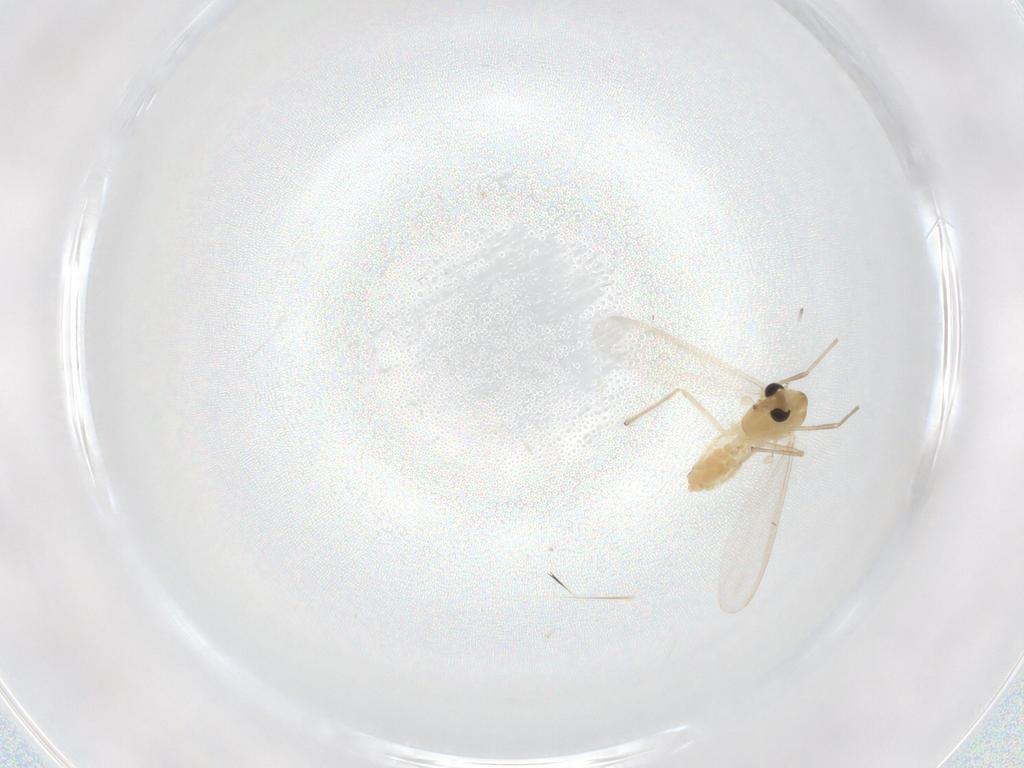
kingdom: Animalia
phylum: Arthropoda
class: Insecta
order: Diptera
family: Chironomidae
